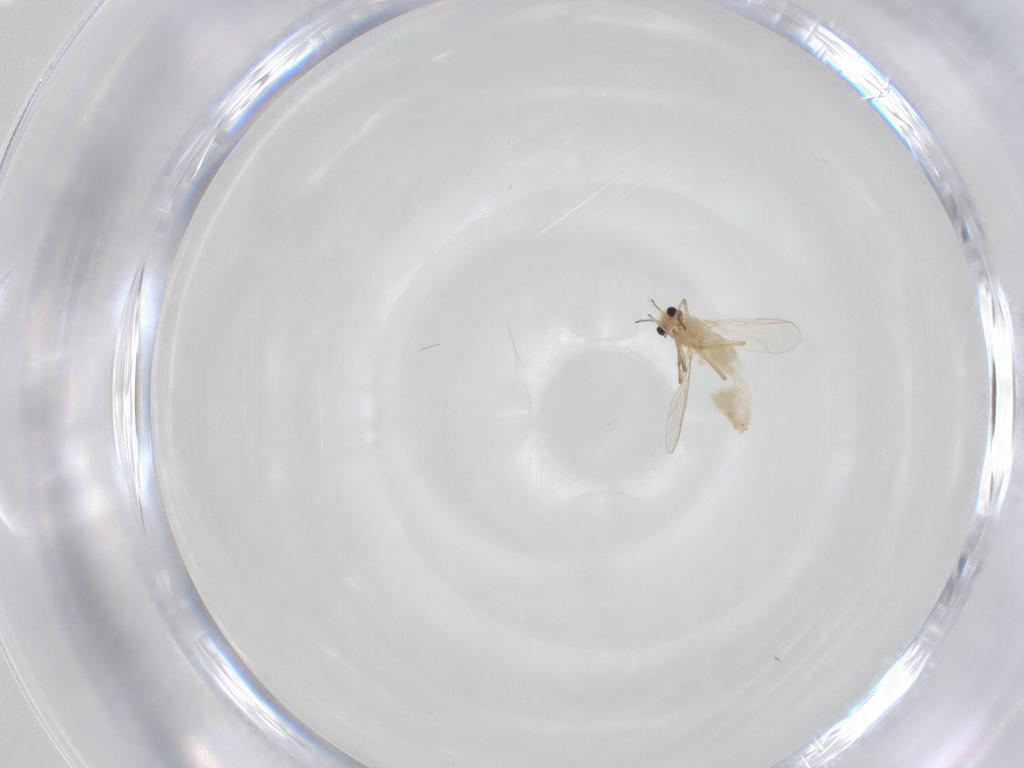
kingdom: Animalia
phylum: Arthropoda
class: Insecta
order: Diptera
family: Chironomidae
